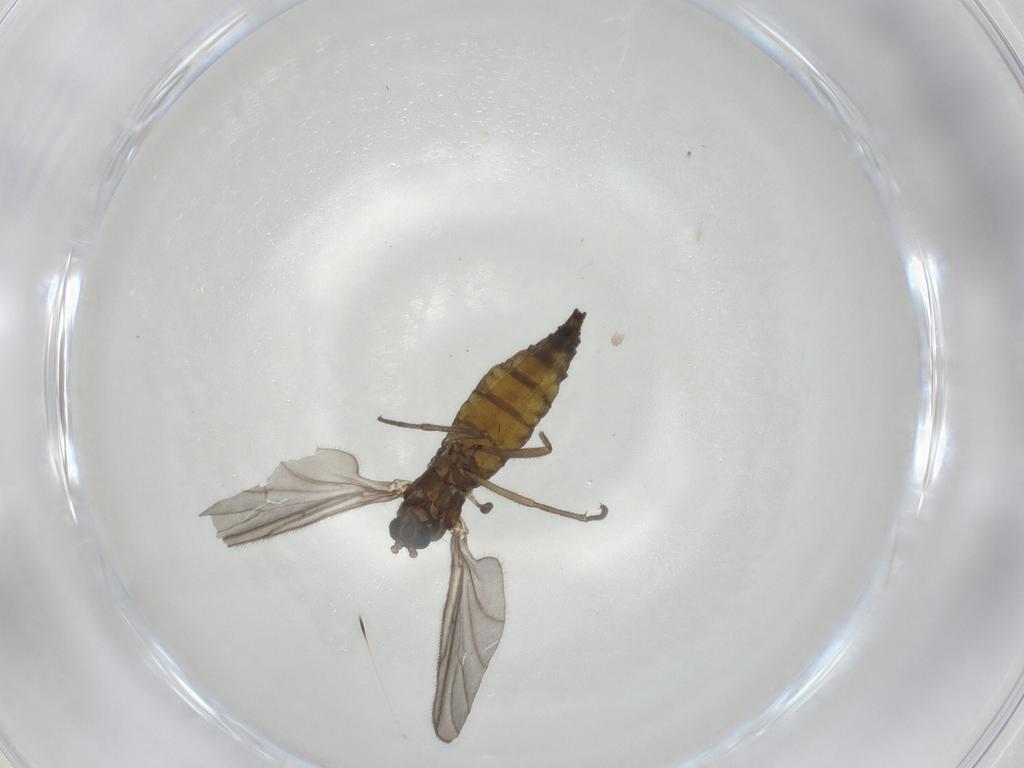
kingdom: Animalia
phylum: Arthropoda
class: Insecta
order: Diptera
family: Sciaridae
